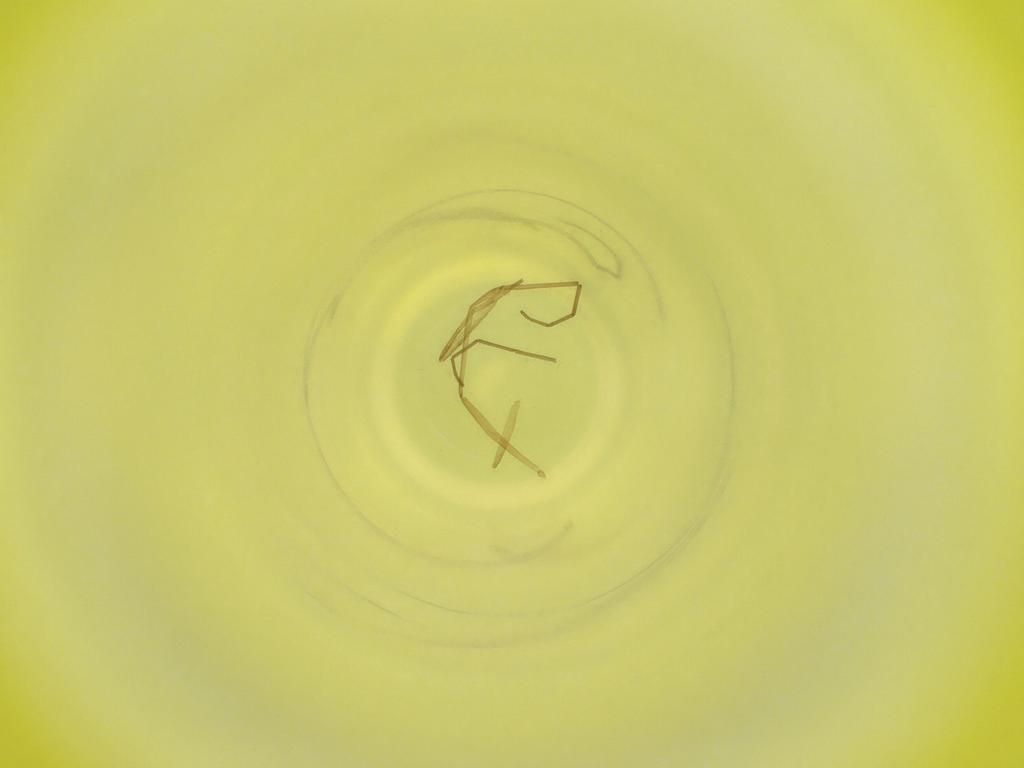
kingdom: Animalia
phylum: Arthropoda
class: Insecta
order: Diptera
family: Cecidomyiidae
